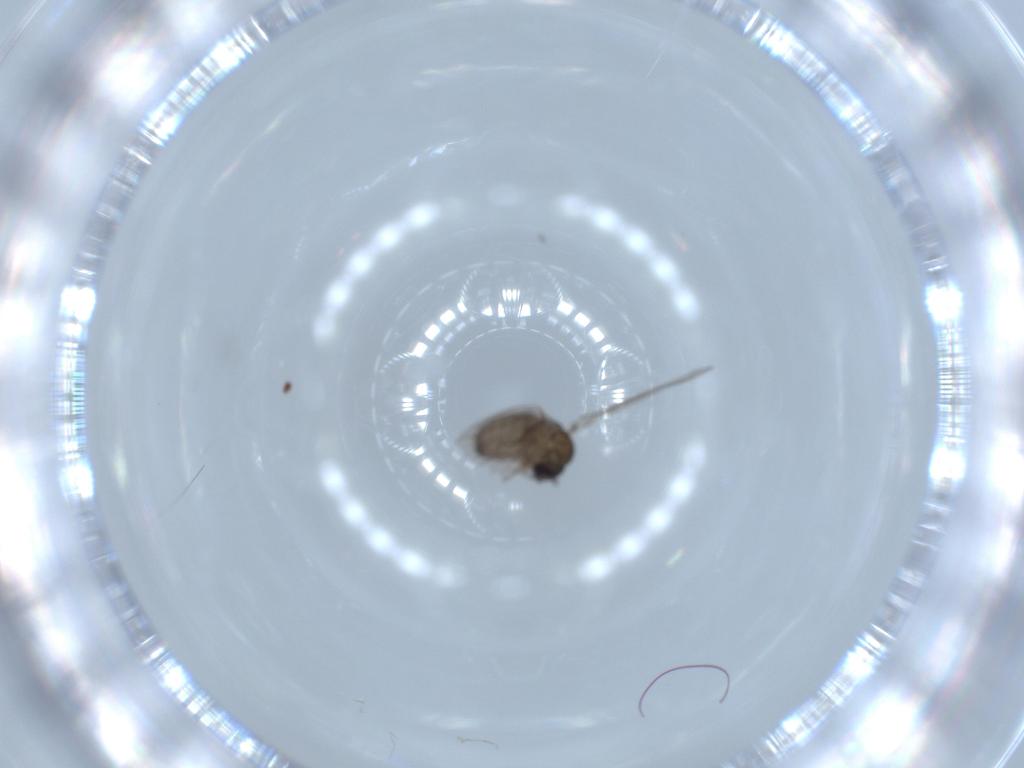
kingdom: Animalia
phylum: Arthropoda
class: Insecta
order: Diptera
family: Psychodidae
